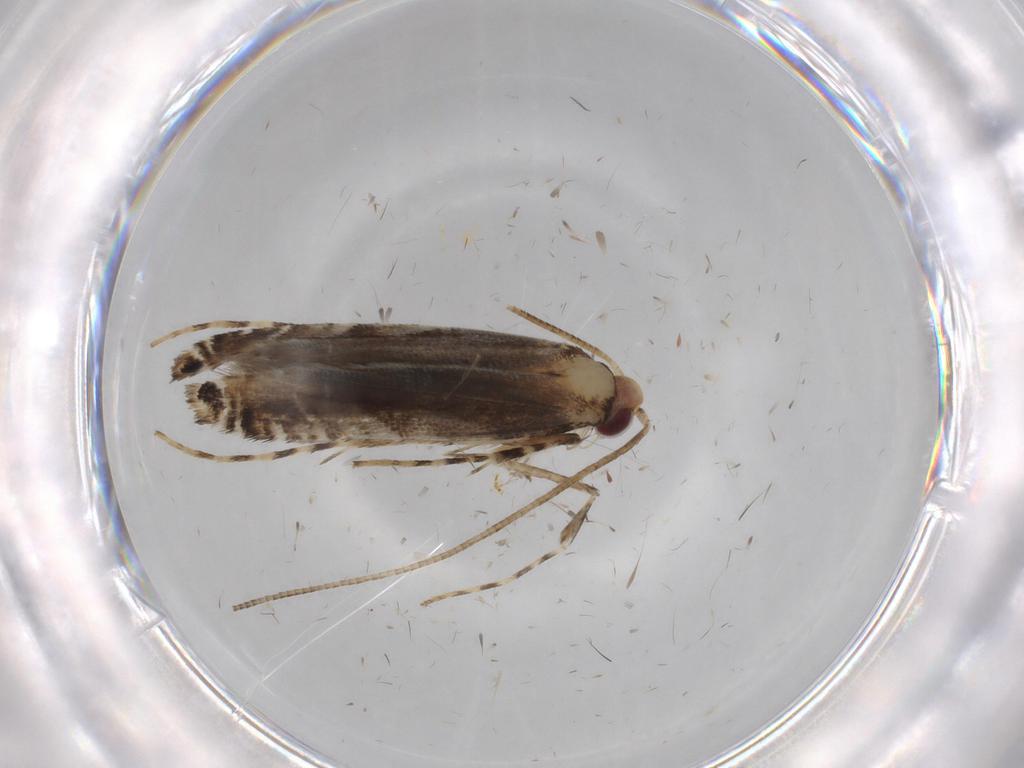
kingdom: Animalia
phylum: Arthropoda
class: Insecta
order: Lepidoptera
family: Gracillariidae
